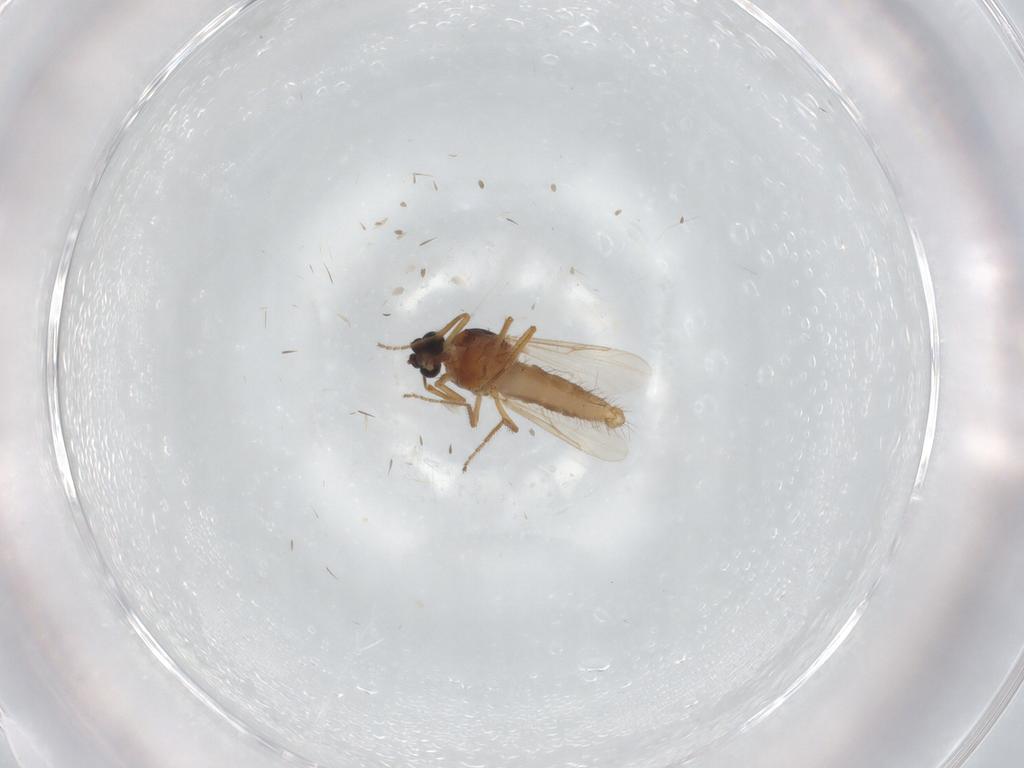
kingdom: Animalia
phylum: Arthropoda
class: Insecta
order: Diptera
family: Ceratopogonidae
